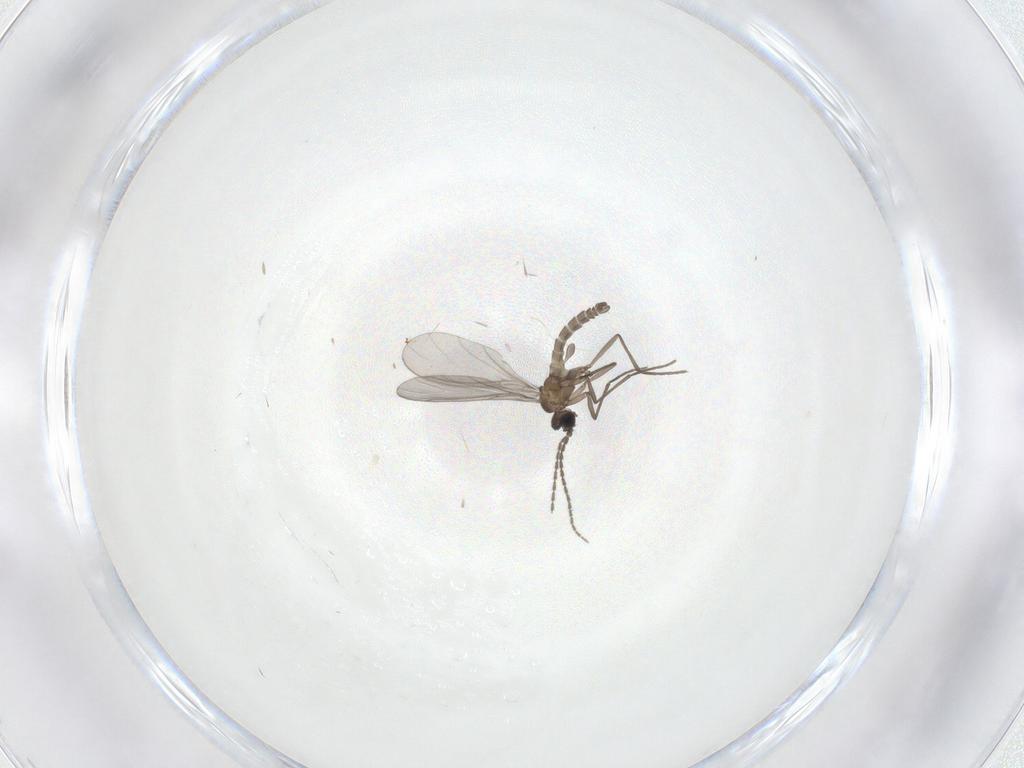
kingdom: Animalia
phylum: Arthropoda
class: Insecta
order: Diptera
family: Sciaridae
